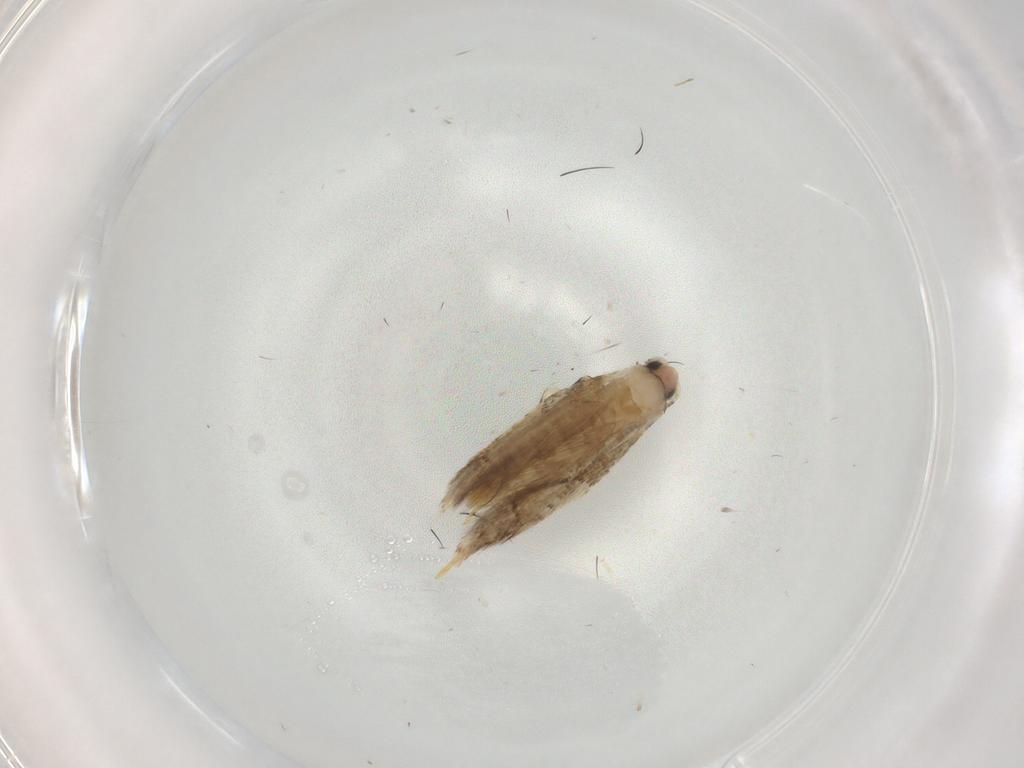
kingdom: Animalia
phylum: Arthropoda
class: Insecta
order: Lepidoptera
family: Tineidae
